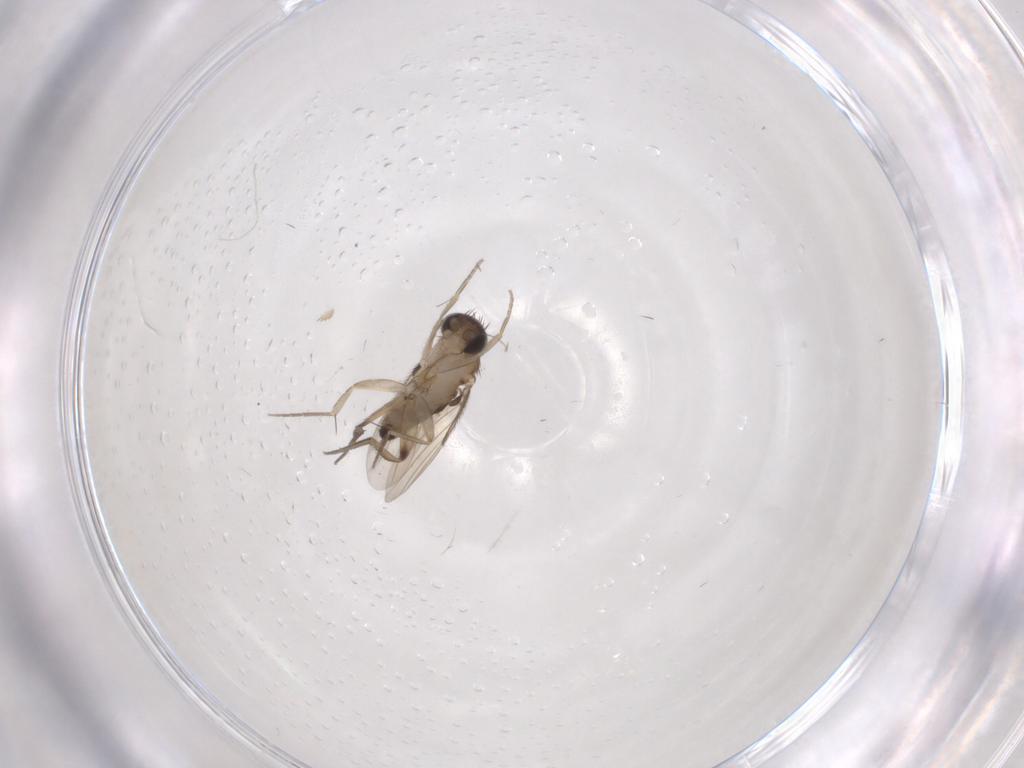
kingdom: Animalia
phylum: Arthropoda
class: Insecta
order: Diptera
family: Phoridae
